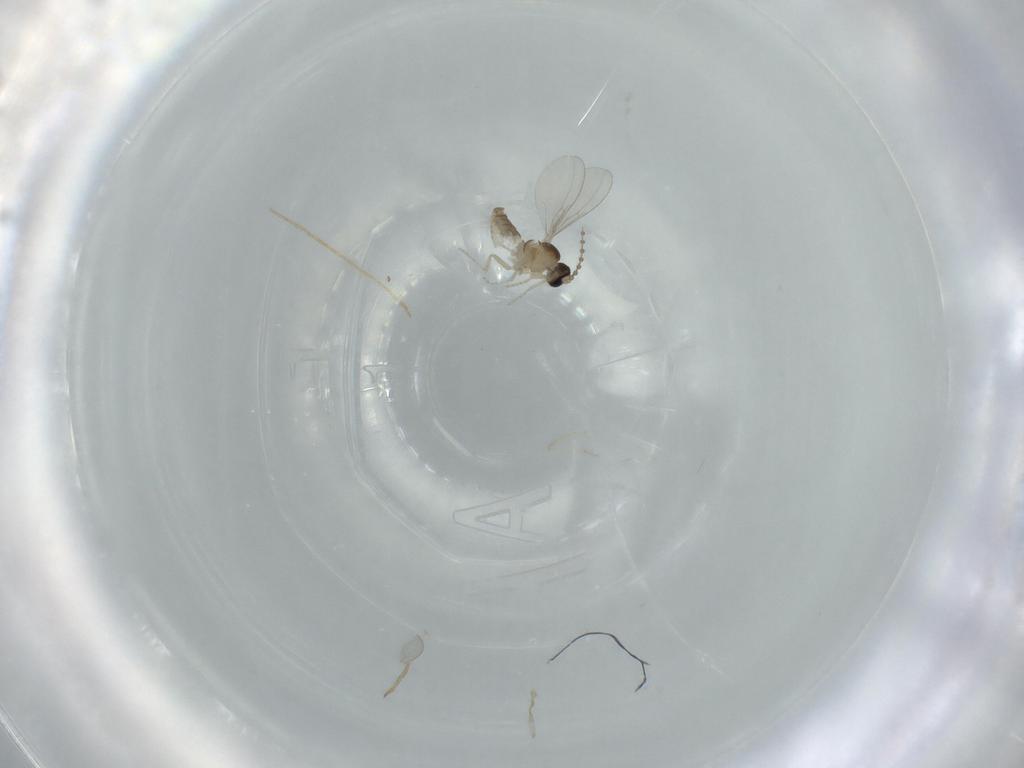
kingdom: Animalia
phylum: Arthropoda
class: Insecta
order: Diptera
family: Cecidomyiidae
